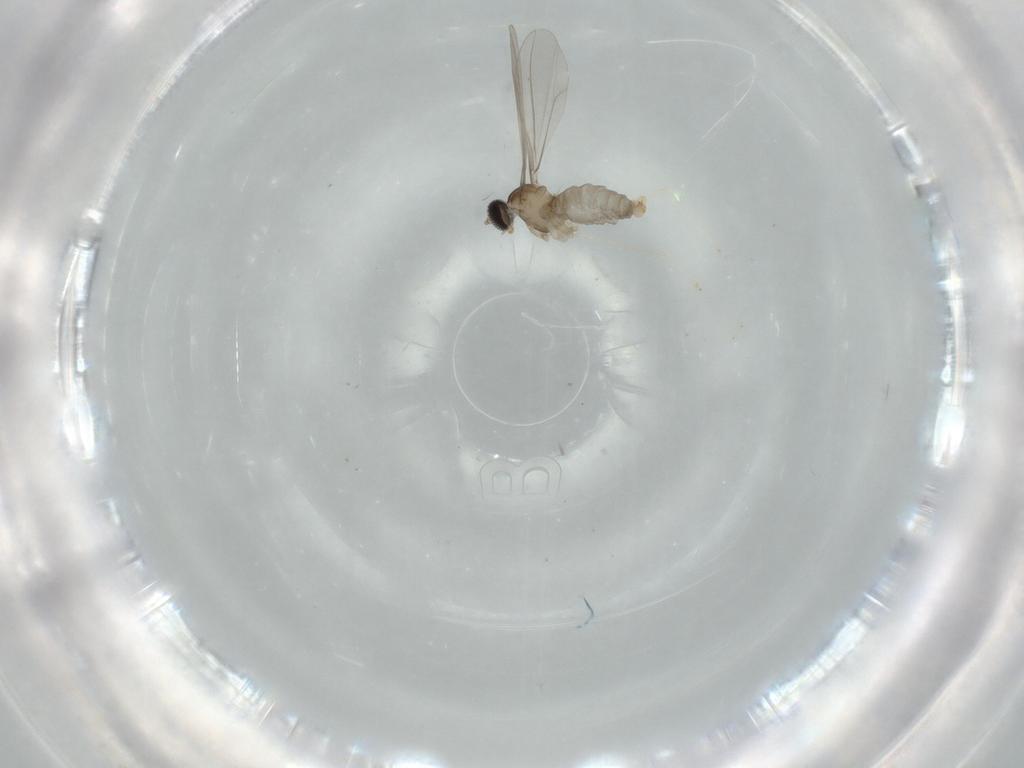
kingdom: Animalia
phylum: Arthropoda
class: Insecta
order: Diptera
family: Cecidomyiidae
